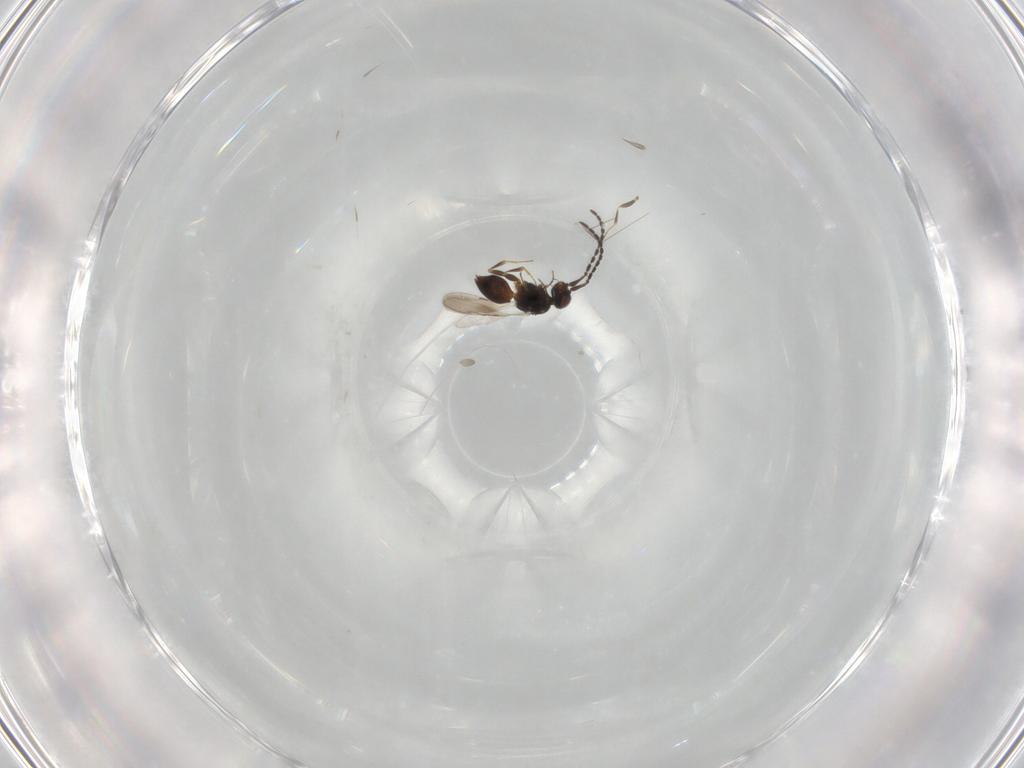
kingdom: Animalia
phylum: Arthropoda
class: Insecta
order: Hymenoptera
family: Ceraphronidae
